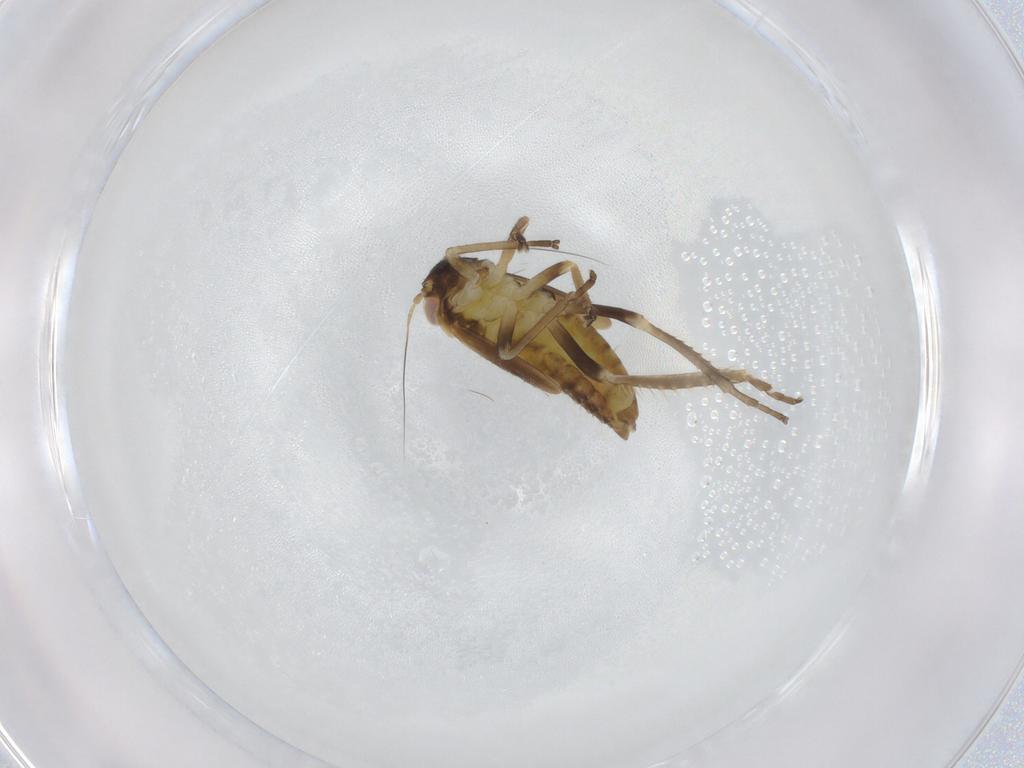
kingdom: Animalia
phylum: Arthropoda
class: Insecta
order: Hemiptera
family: Cicadellidae
